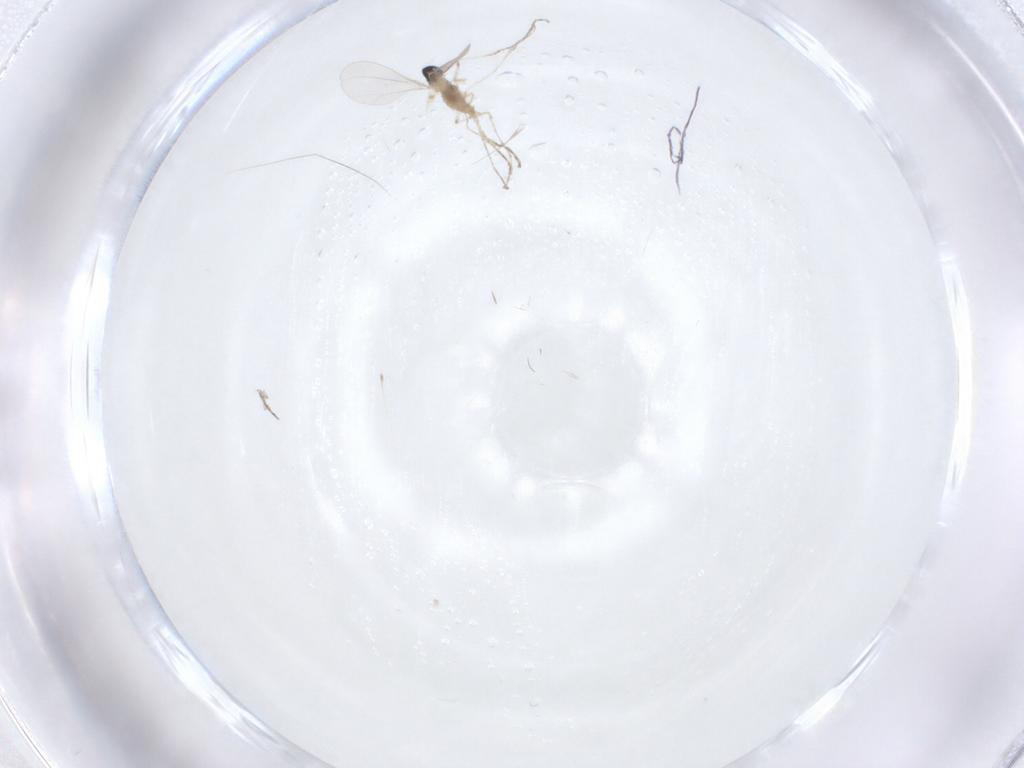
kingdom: Animalia
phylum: Arthropoda
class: Insecta
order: Diptera
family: Cecidomyiidae
